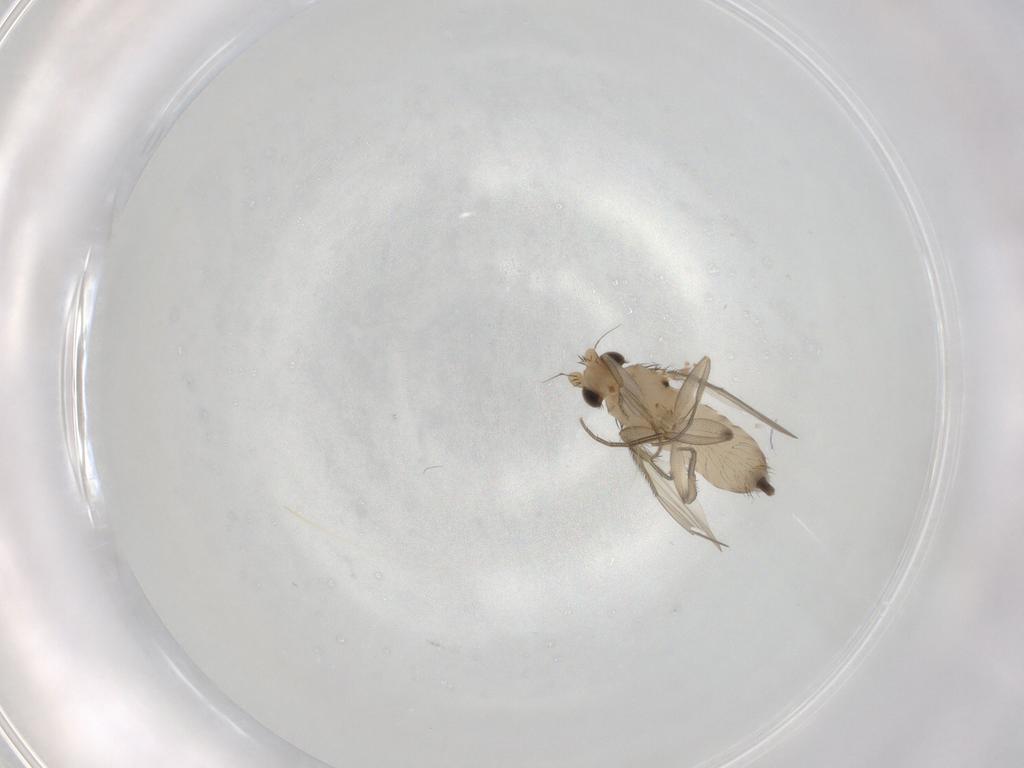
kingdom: Animalia
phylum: Arthropoda
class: Insecta
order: Diptera
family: Phoridae
